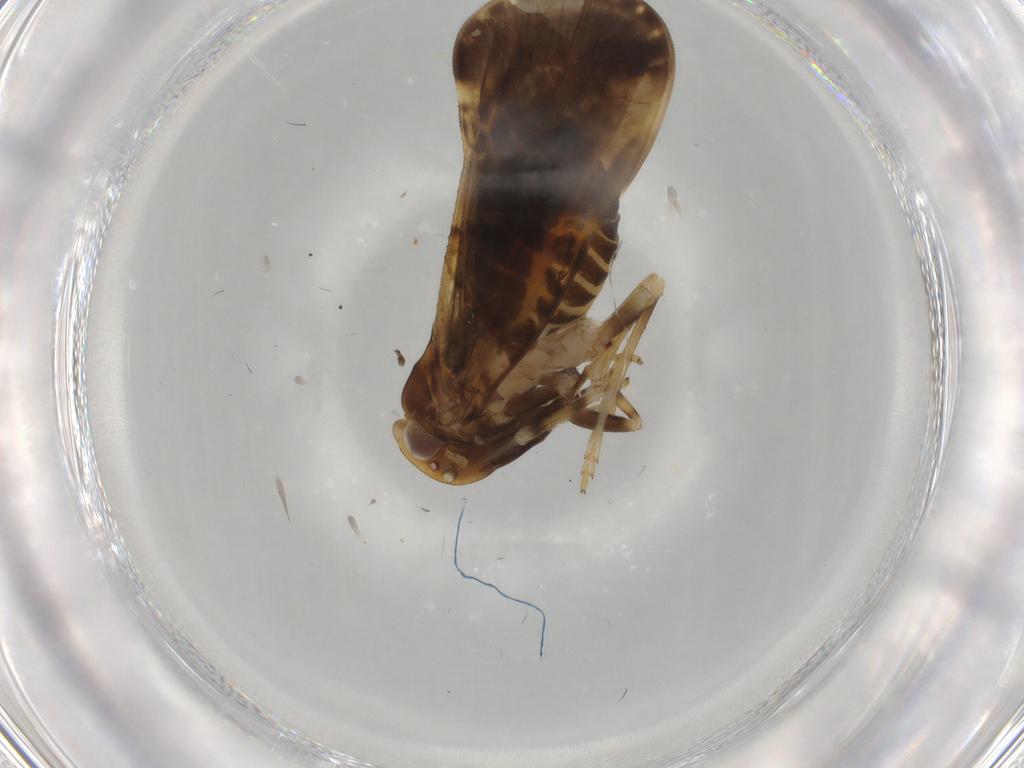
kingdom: Animalia
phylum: Arthropoda
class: Insecta
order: Hemiptera
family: Cixiidae
